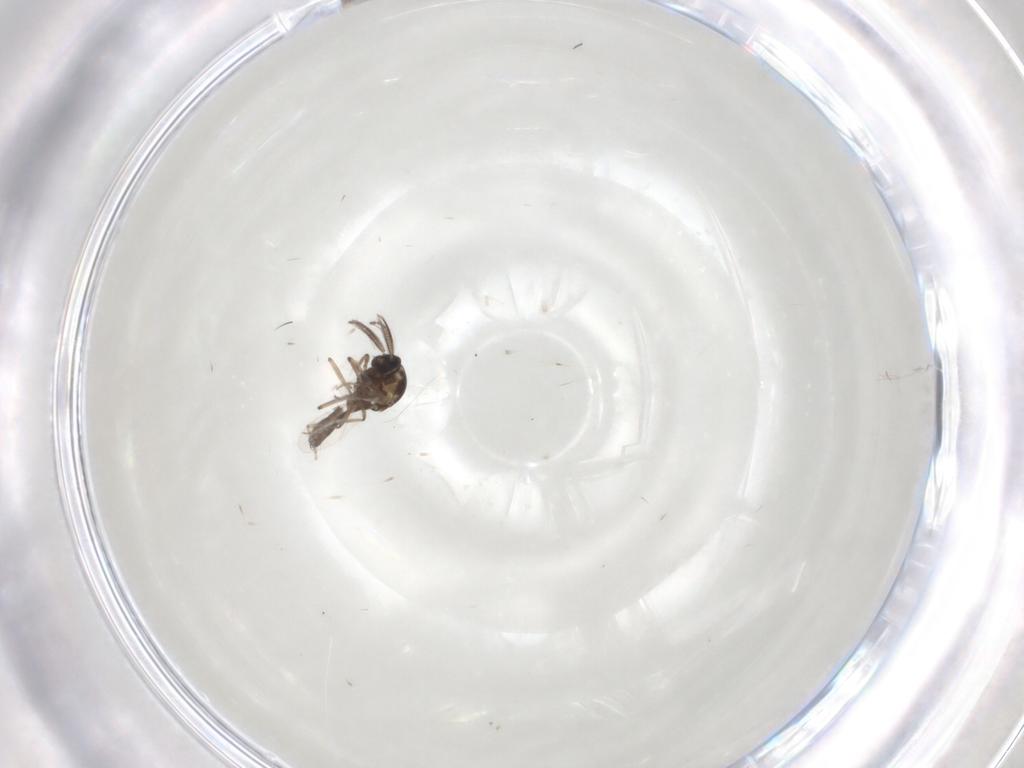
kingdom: Animalia
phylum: Arthropoda
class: Insecta
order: Diptera
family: Ceratopogonidae
